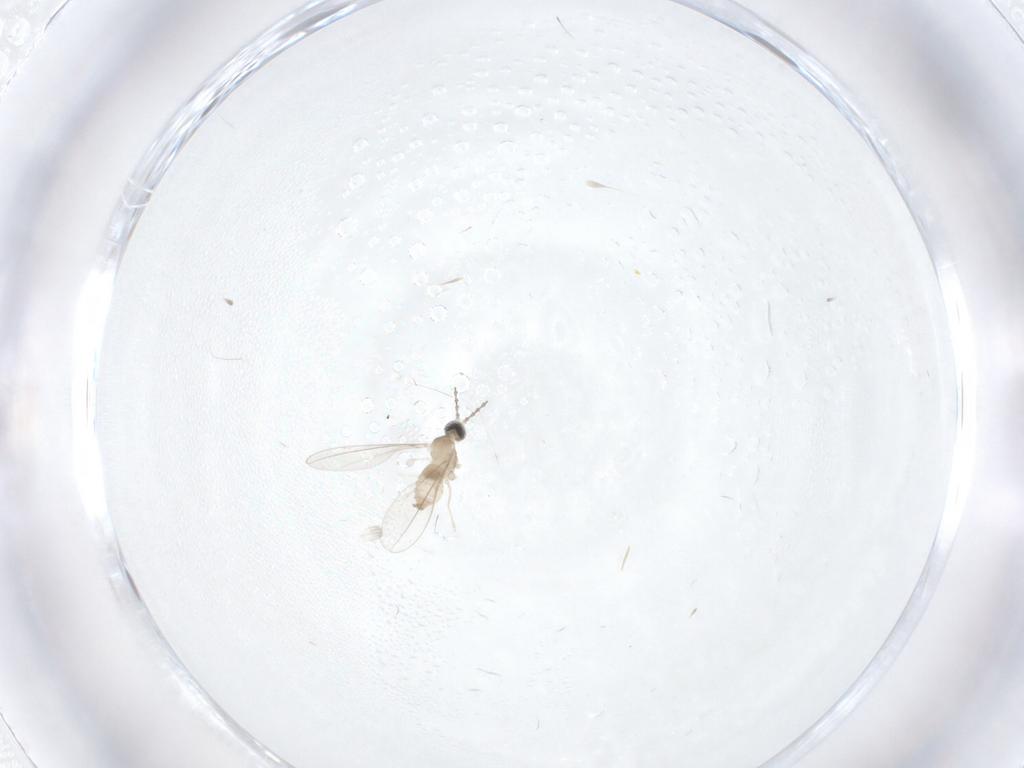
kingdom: Animalia
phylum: Arthropoda
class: Insecta
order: Diptera
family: Psychodidae
